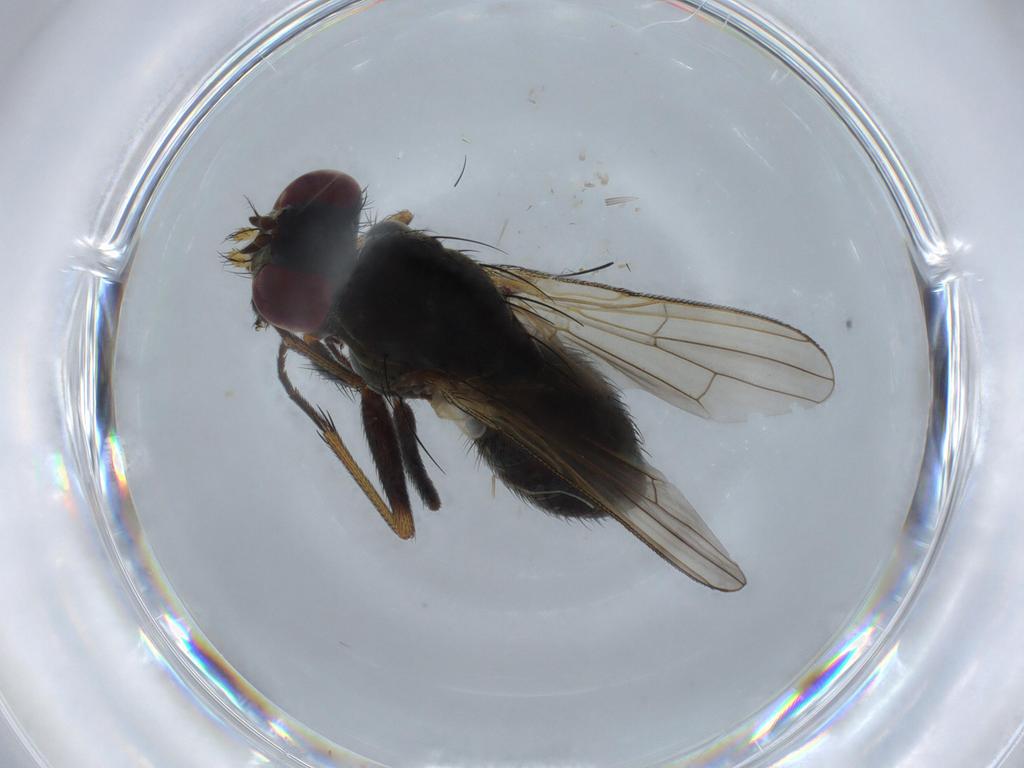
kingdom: Animalia
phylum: Arthropoda
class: Insecta
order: Diptera
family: Muscidae
